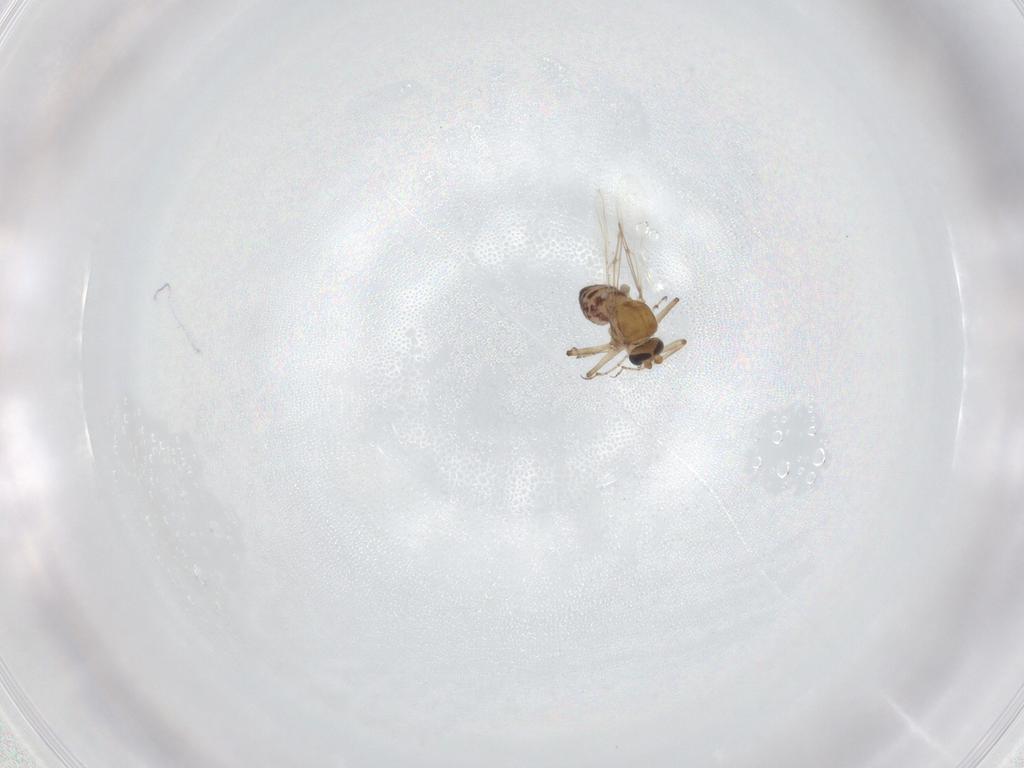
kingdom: Animalia
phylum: Arthropoda
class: Insecta
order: Diptera
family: Ceratopogonidae
